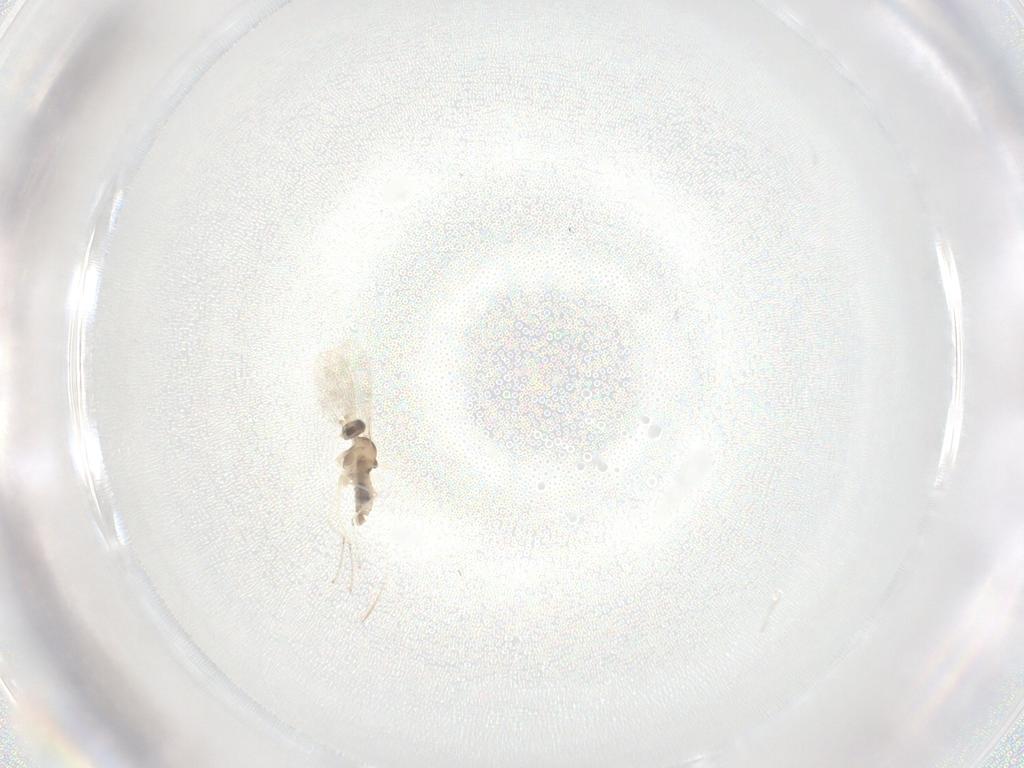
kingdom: Animalia
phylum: Arthropoda
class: Insecta
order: Diptera
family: Cecidomyiidae
